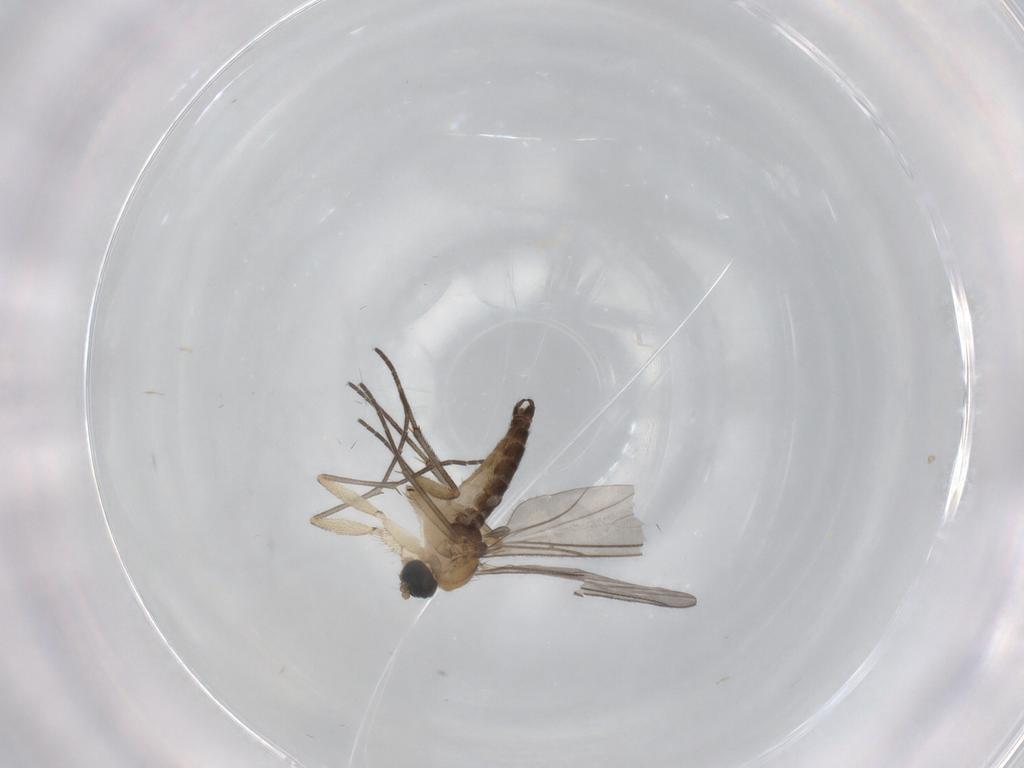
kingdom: Animalia
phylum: Arthropoda
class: Insecta
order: Diptera
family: Sciaridae
